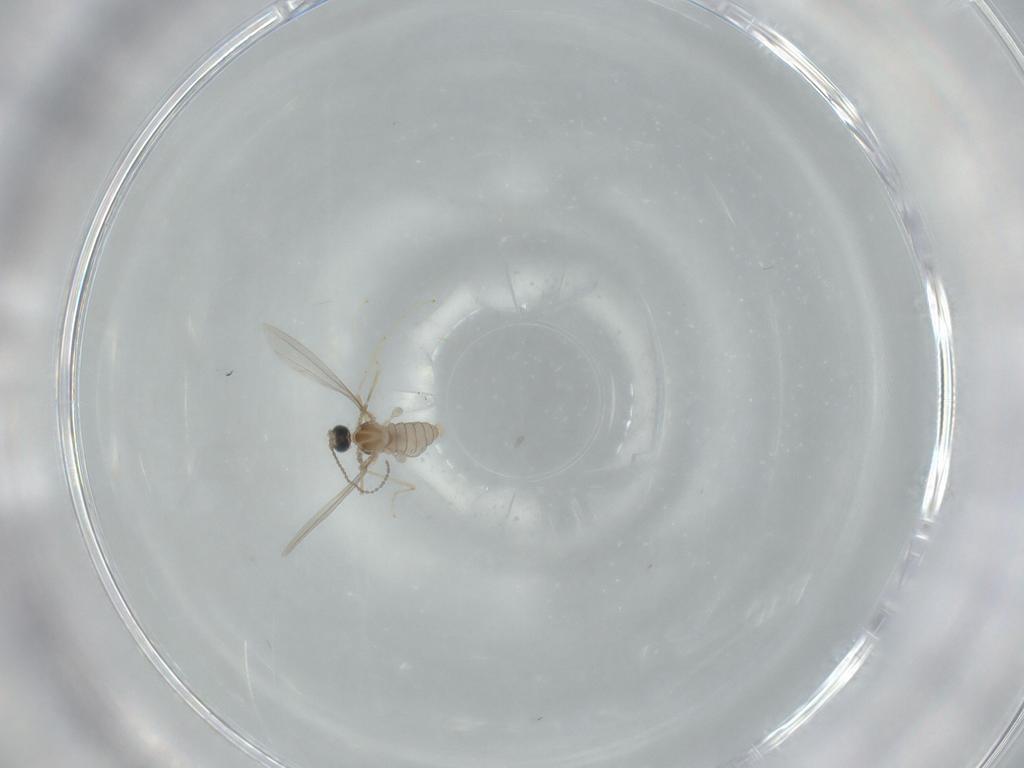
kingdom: Animalia
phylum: Arthropoda
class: Insecta
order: Diptera
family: Cecidomyiidae
